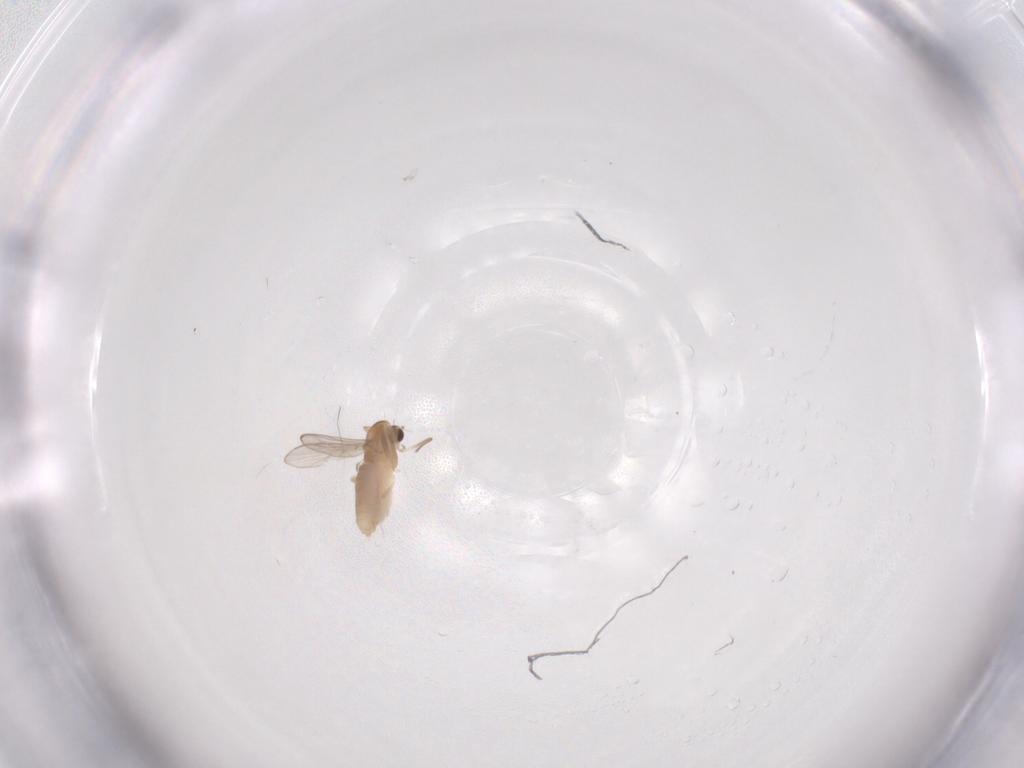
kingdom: Animalia
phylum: Arthropoda
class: Insecta
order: Diptera
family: Chironomidae
